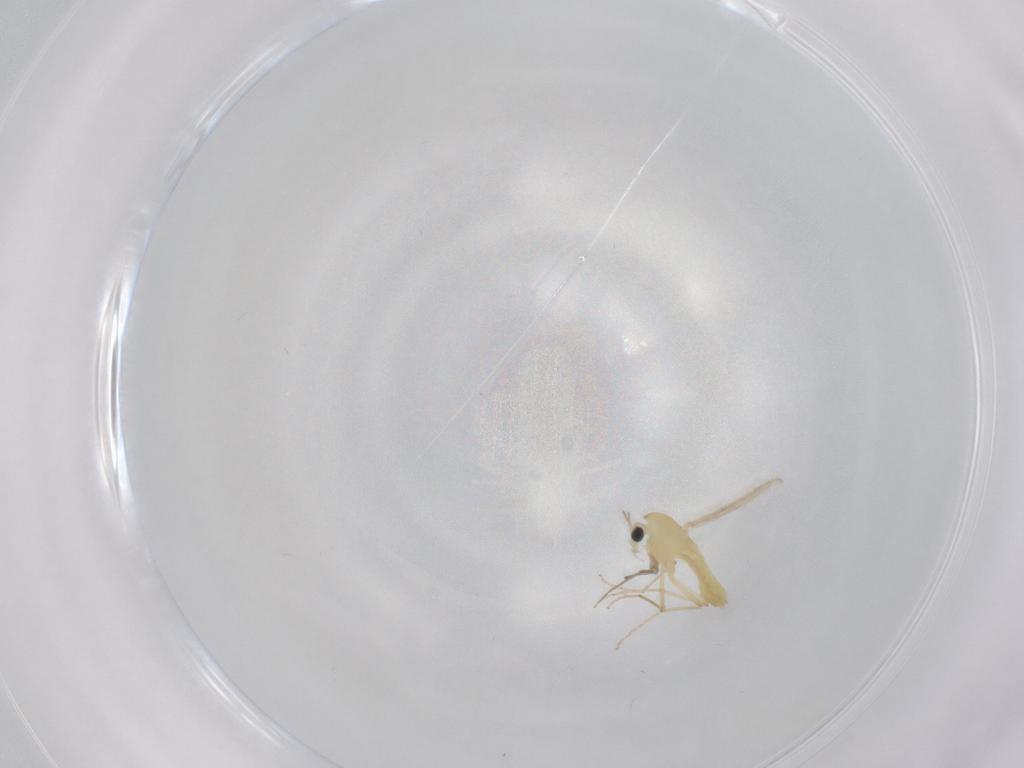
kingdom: Animalia
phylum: Arthropoda
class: Insecta
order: Diptera
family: Chironomidae
